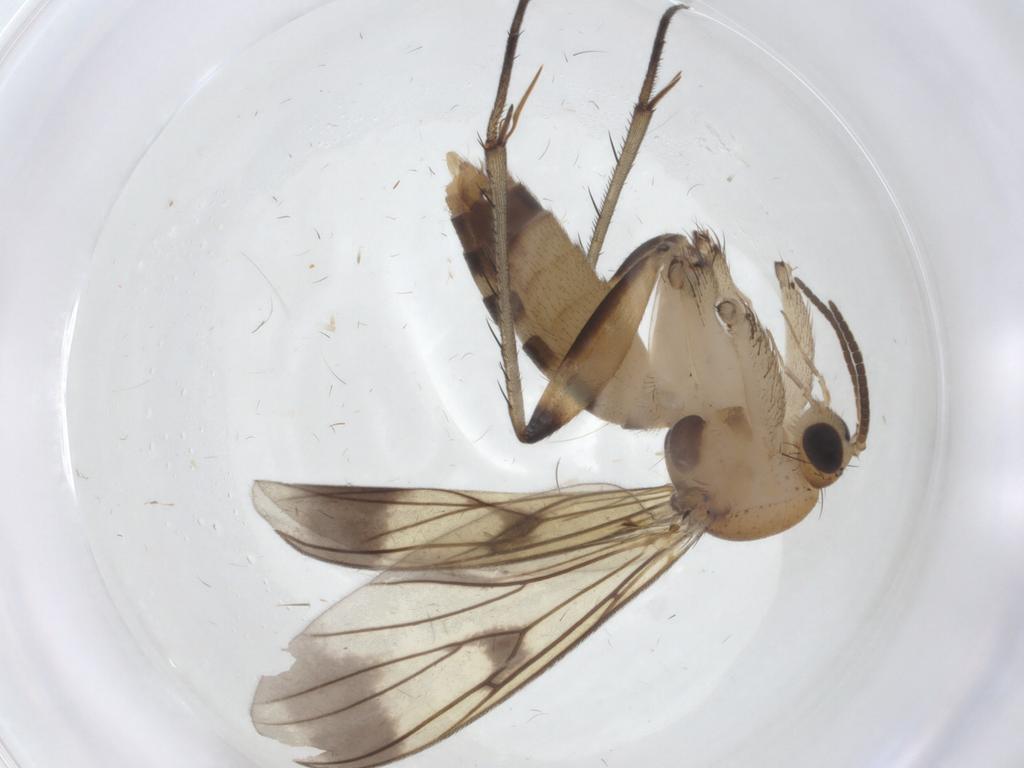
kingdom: Animalia
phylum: Arthropoda
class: Insecta
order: Diptera
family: Mycetophilidae
